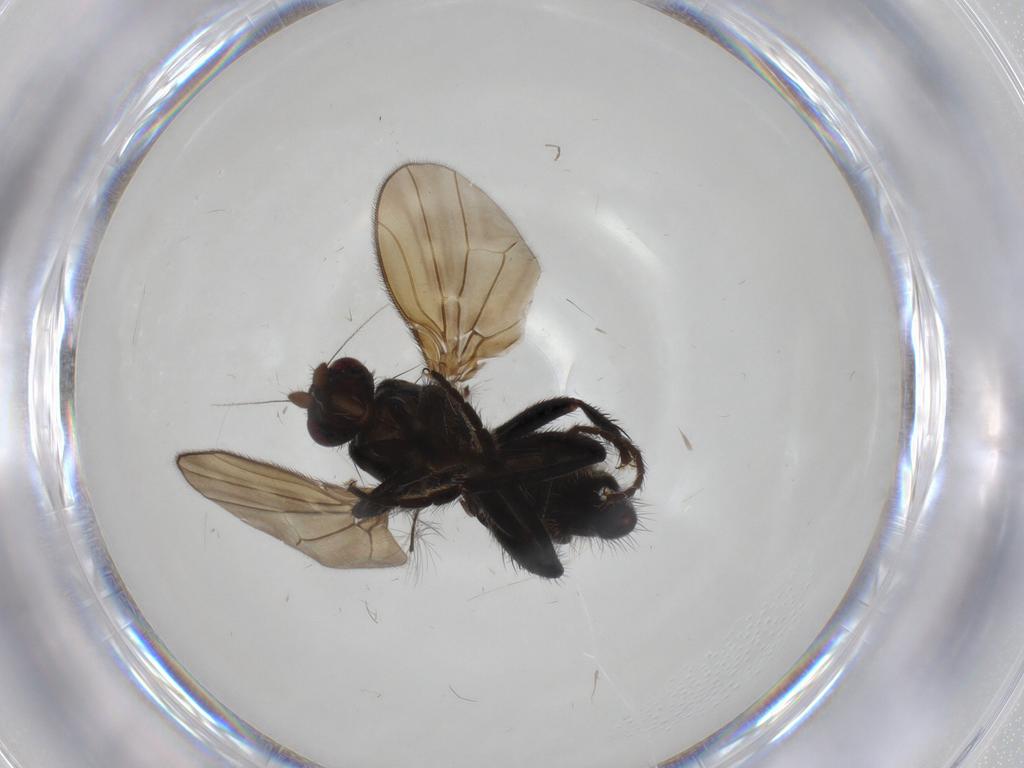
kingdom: Animalia
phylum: Arthropoda
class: Insecta
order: Diptera
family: Sphaeroceridae
